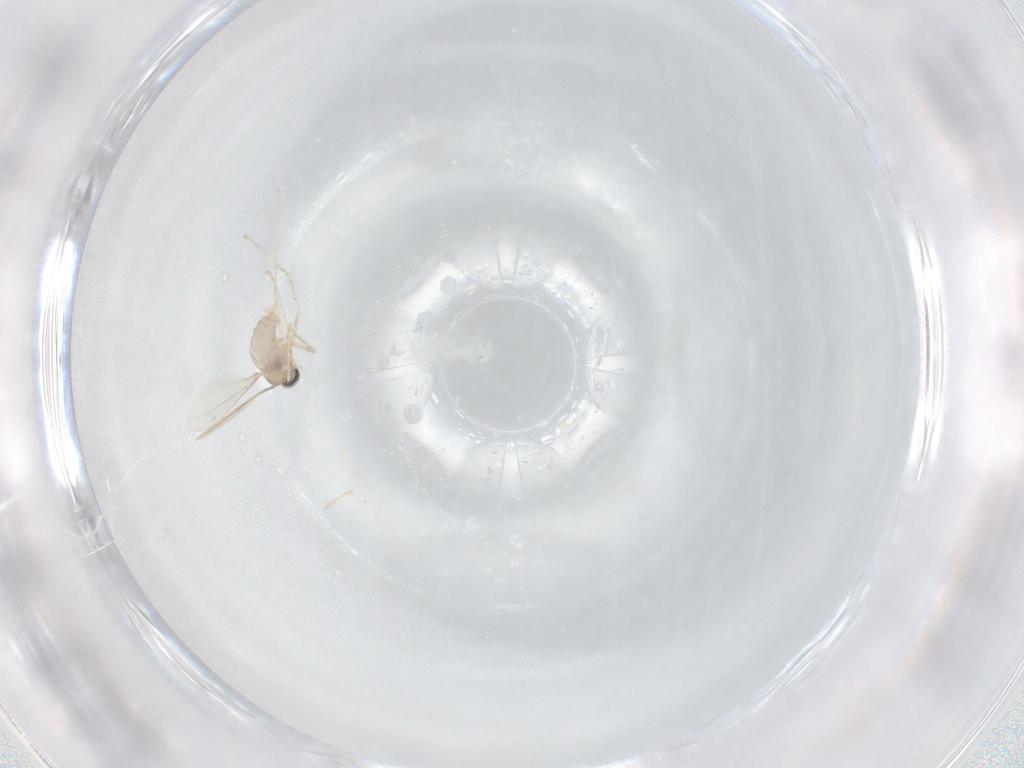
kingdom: Animalia
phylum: Arthropoda
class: Insecta
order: Diptera
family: Cecidomyiidae
